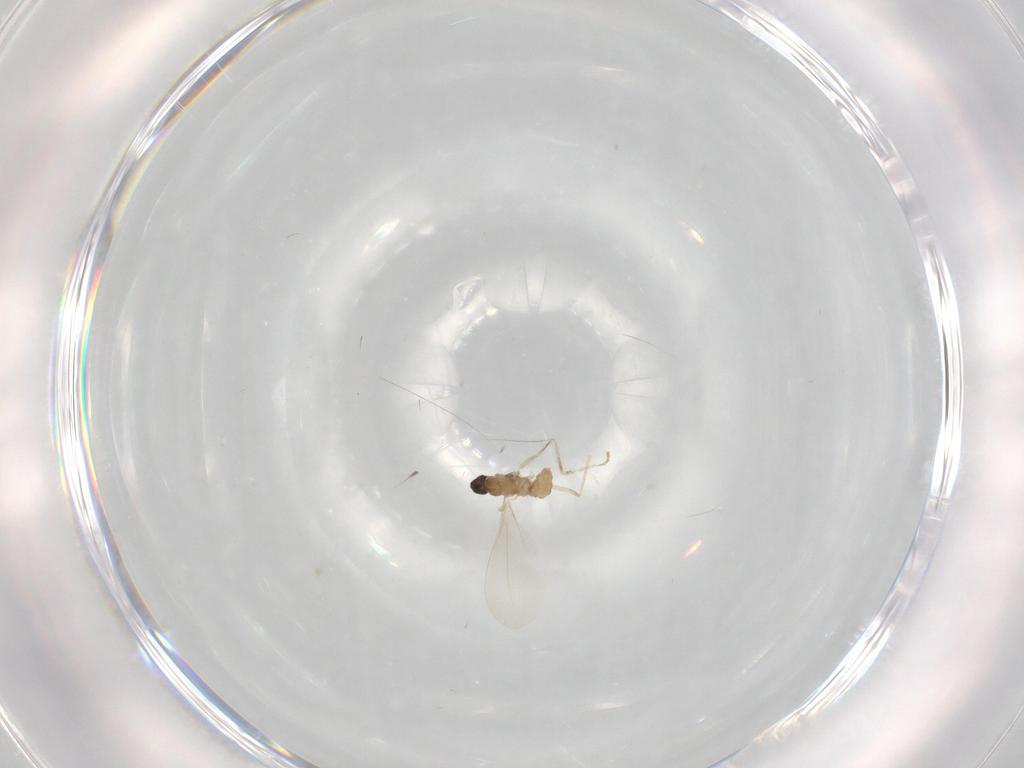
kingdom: Animalia
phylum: Arthropoda
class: Insecta
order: Diptera
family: Cecidomyiidae
